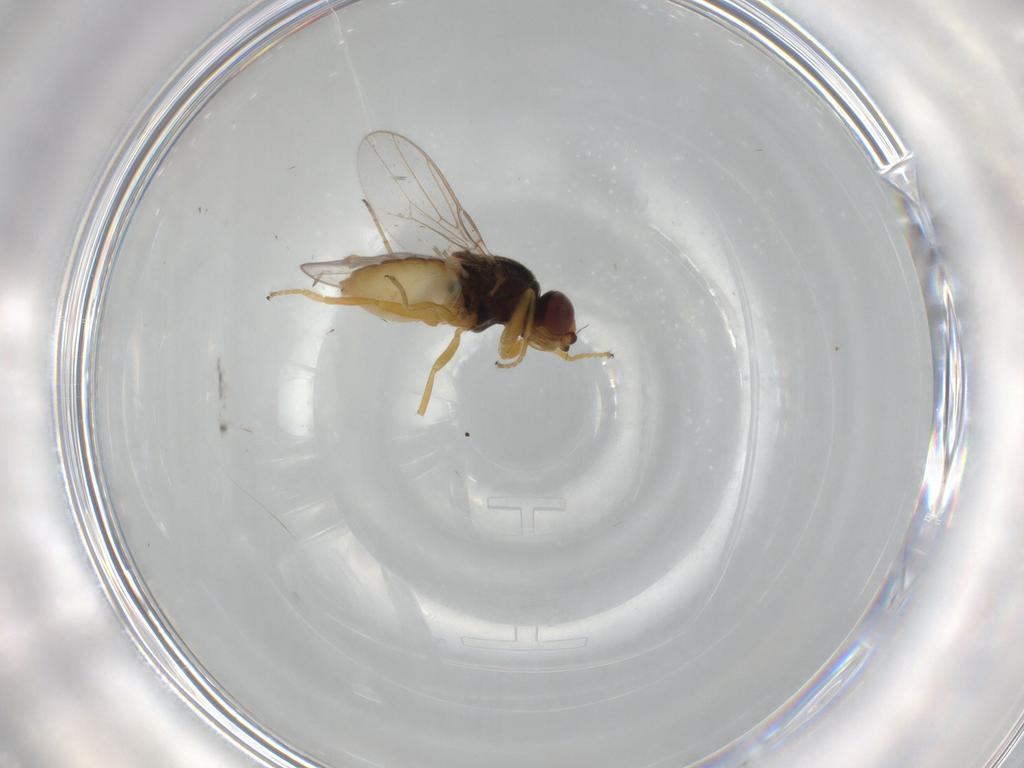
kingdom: Animalia
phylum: Arthropoda
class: Insecta
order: Diptera
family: Chloropidae
